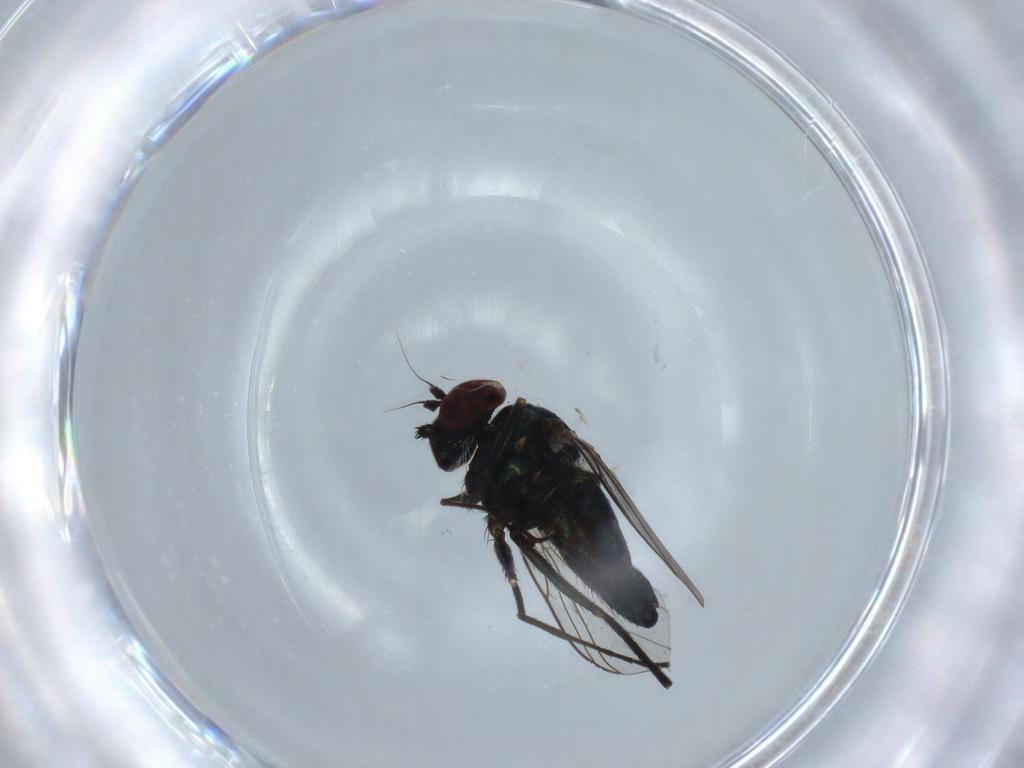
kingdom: Animalia
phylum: Arthropoda
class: Insecta
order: Diptera
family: Dolichopodidae
